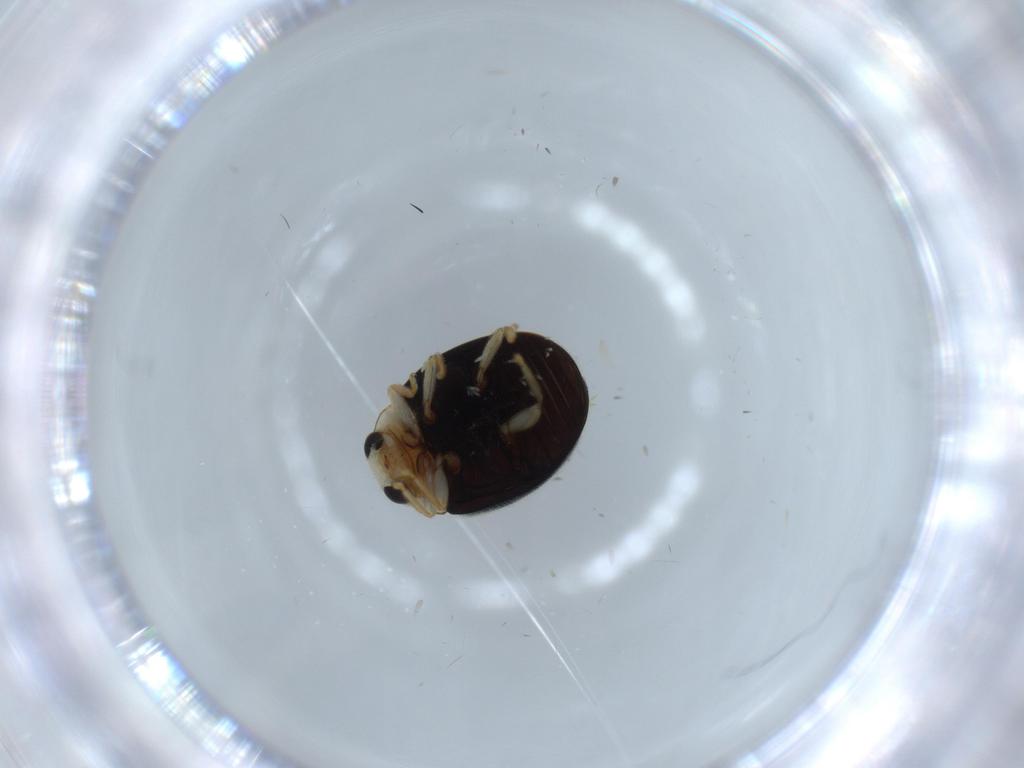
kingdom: Animalia
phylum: Arthropoda
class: Insecta
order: Coleoptera
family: Coccinellidae
